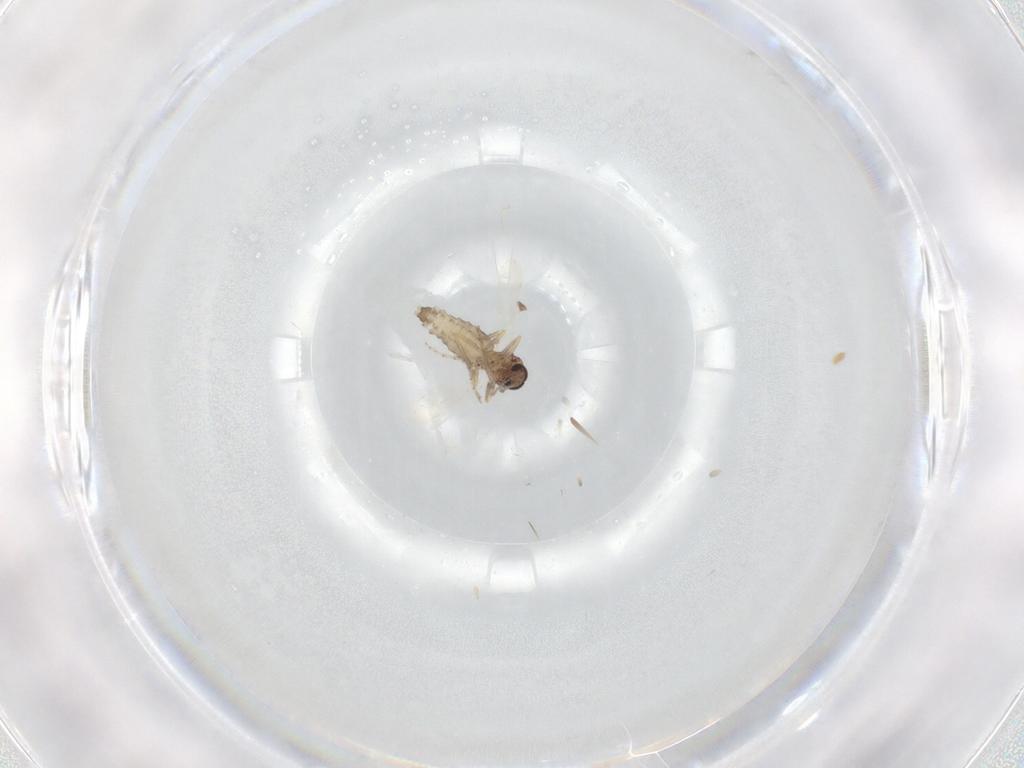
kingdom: Animalia
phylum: Arthropoda
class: Insecta
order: Diptera
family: Ceratopogonidae
